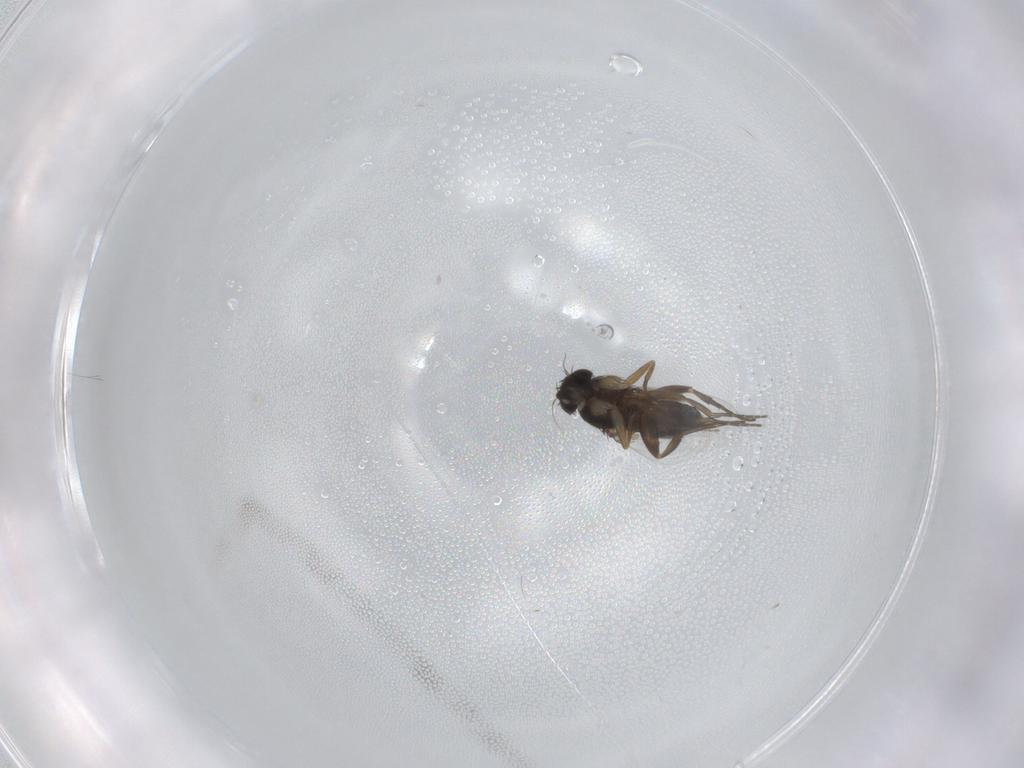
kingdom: Animalia
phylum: Arthropoda
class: Insecta
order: Diptera
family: Phoridae
